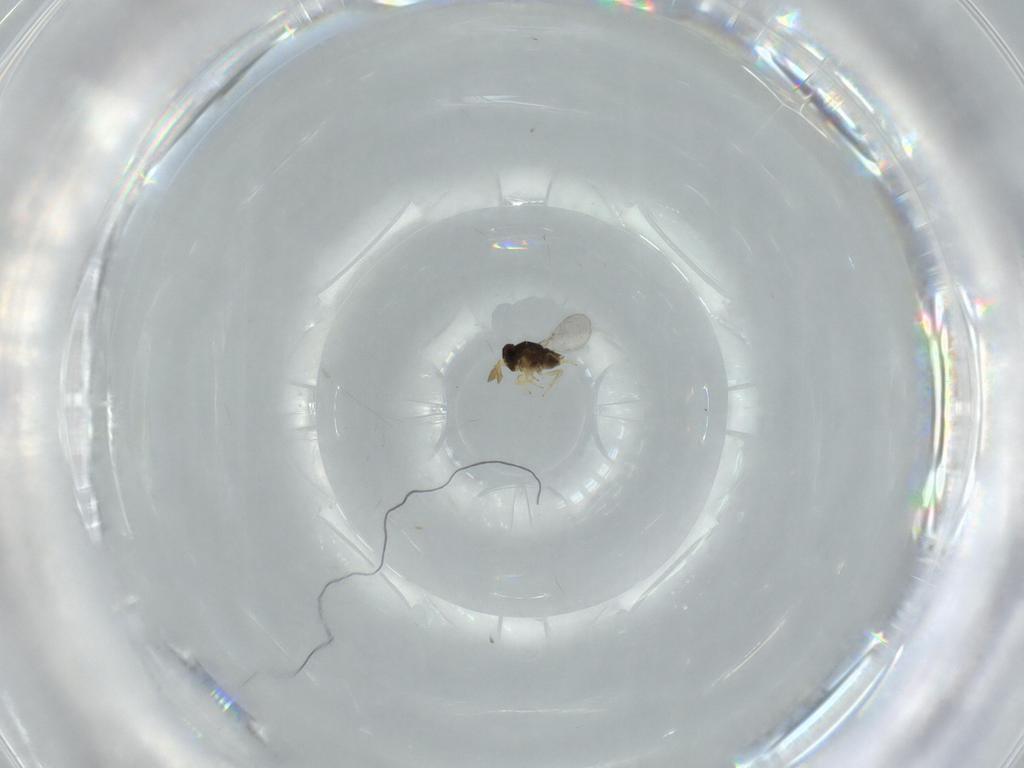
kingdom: Animalia
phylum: Arthropoda
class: Insecta
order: Hymenoptera
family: Encyrtidae
